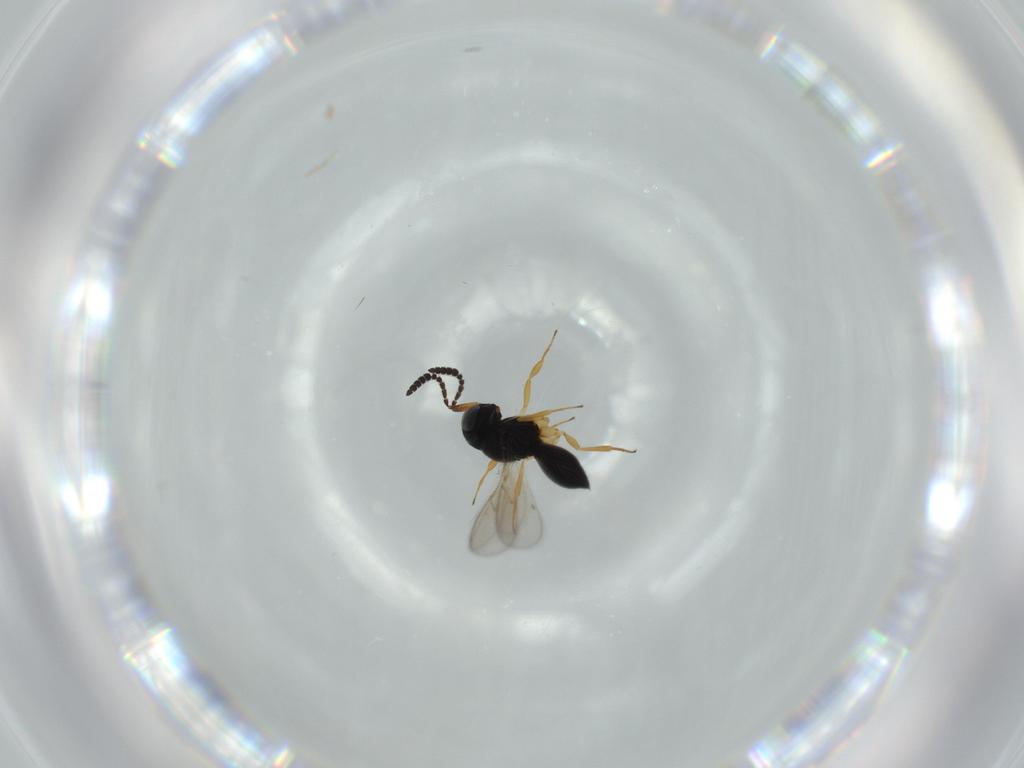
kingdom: Animalia
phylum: Arthropoda
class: Insecta
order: Hymenoptera
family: Scelionidae
